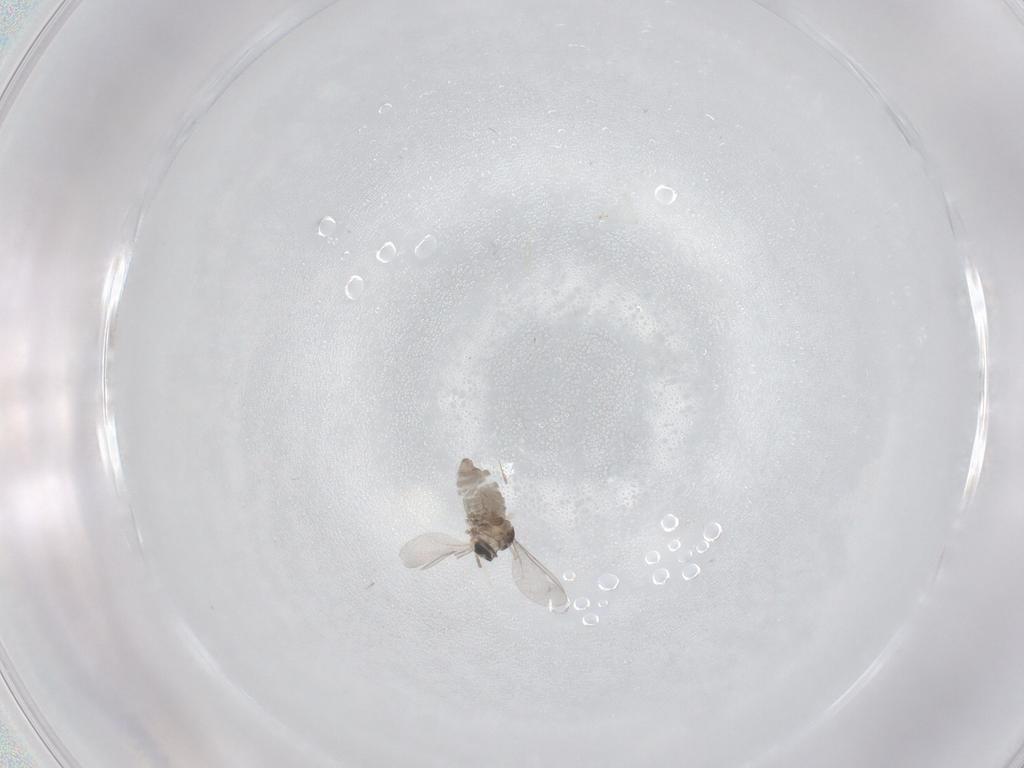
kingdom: Animalia
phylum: Arthropoda
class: Insecta
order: Diptera
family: Cecidomyiidae
